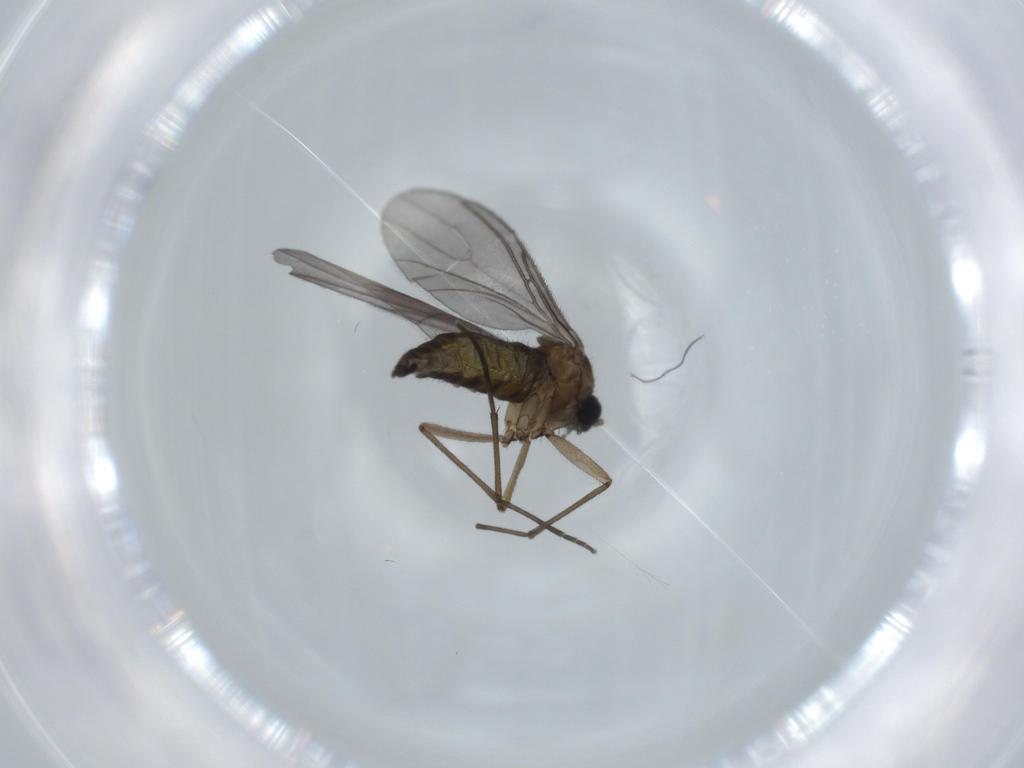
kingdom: Animalia
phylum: Arthropoda
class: Insecta
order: Diptera
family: Sciaridae
